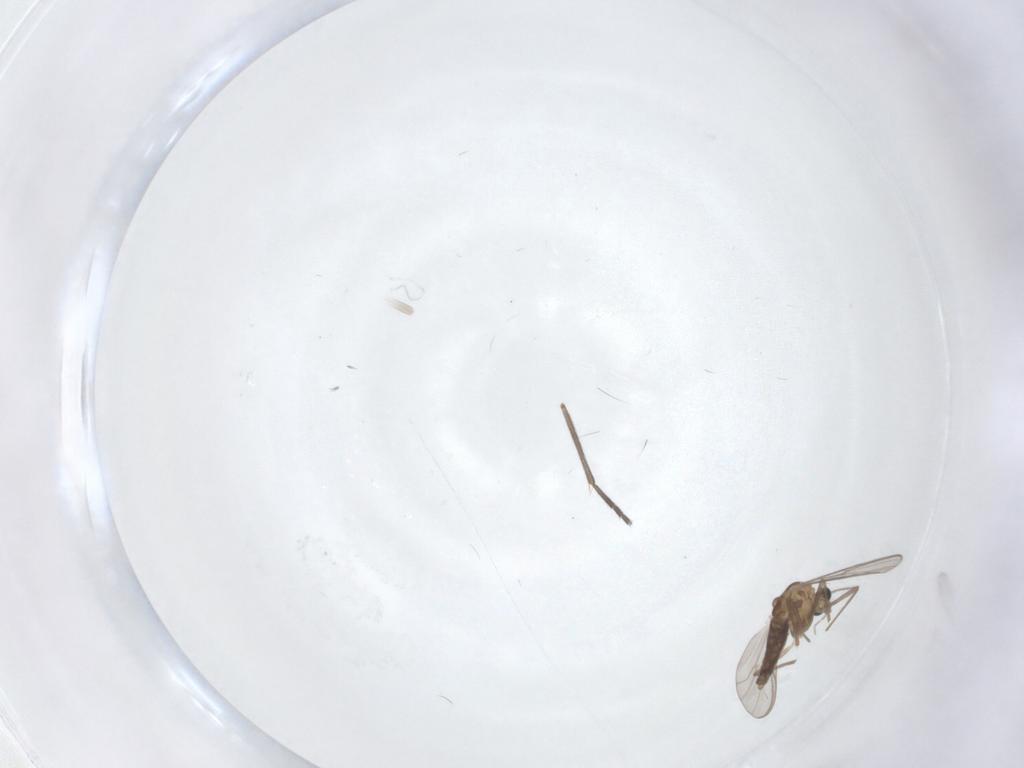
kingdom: Animalia
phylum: Arthropoda
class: Insecta
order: Diptera
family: Chironomidae
